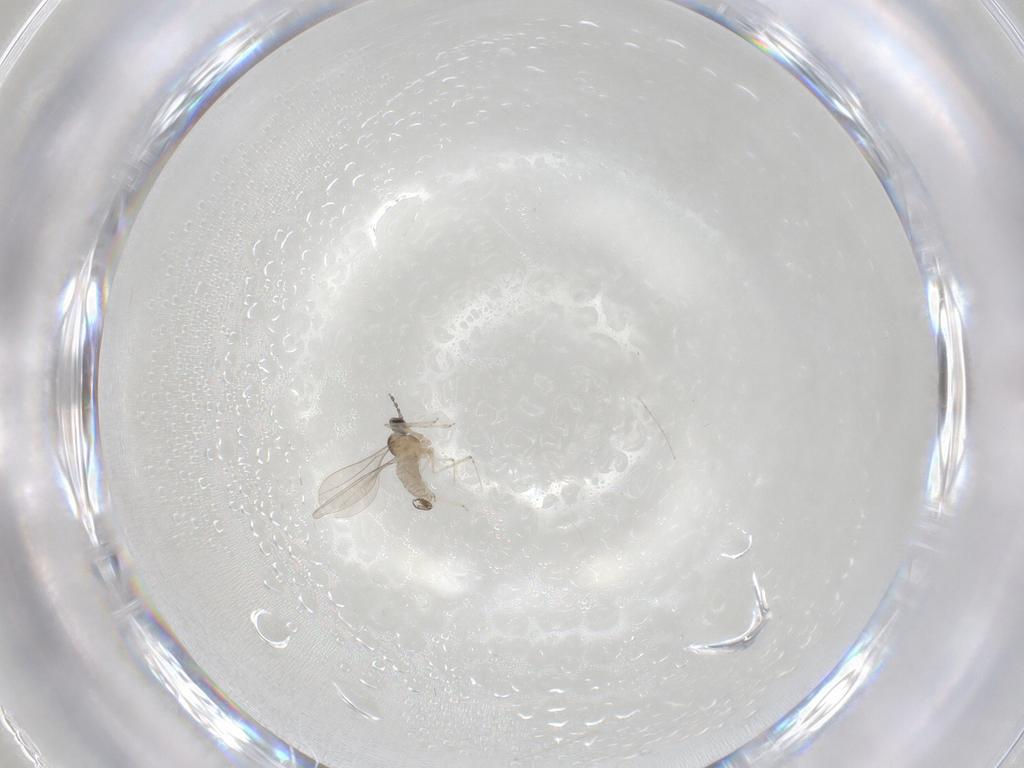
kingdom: Animalia
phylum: Arthropoda
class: Insecta
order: Diptera
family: Cecidomyiidae
